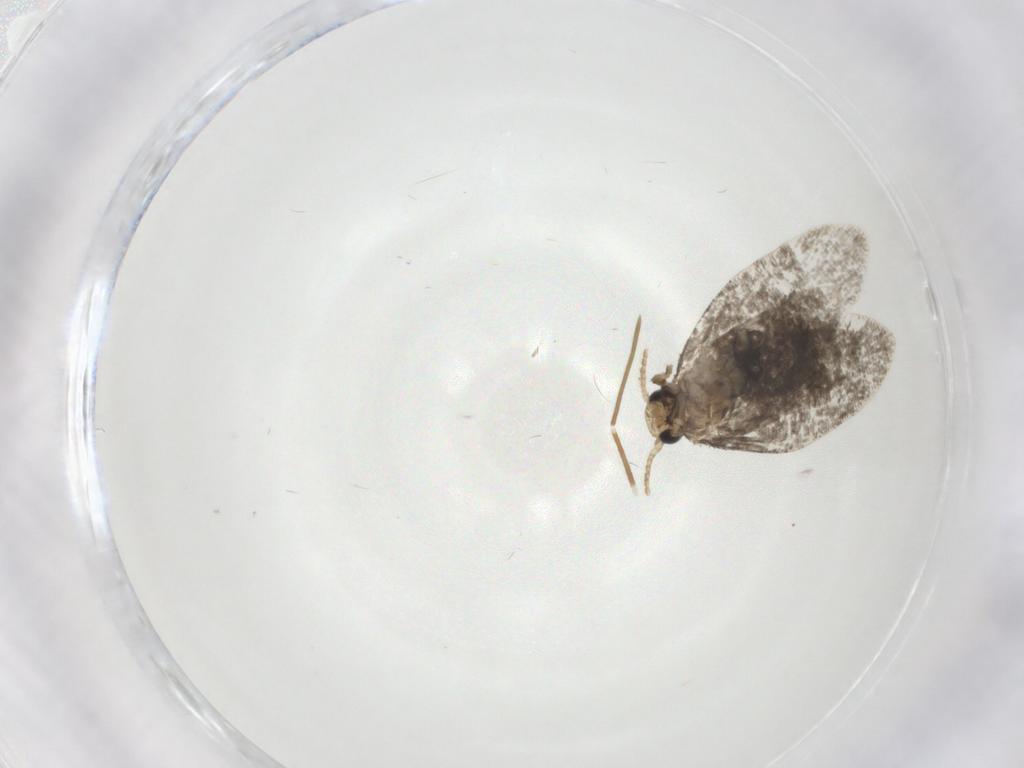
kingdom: Animalia
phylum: Arthropoda
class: Insecta
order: Lepidoptera
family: Psychidae
